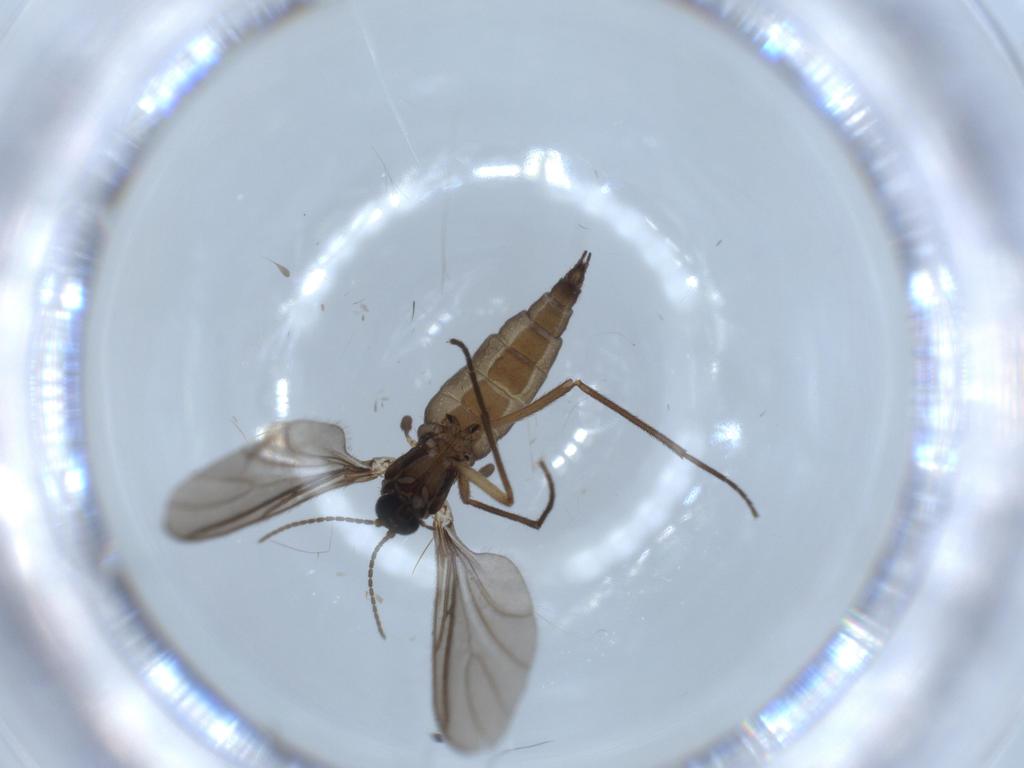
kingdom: Animalia
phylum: Arthropoda
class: Insecta
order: Diptera
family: Sciaridae
